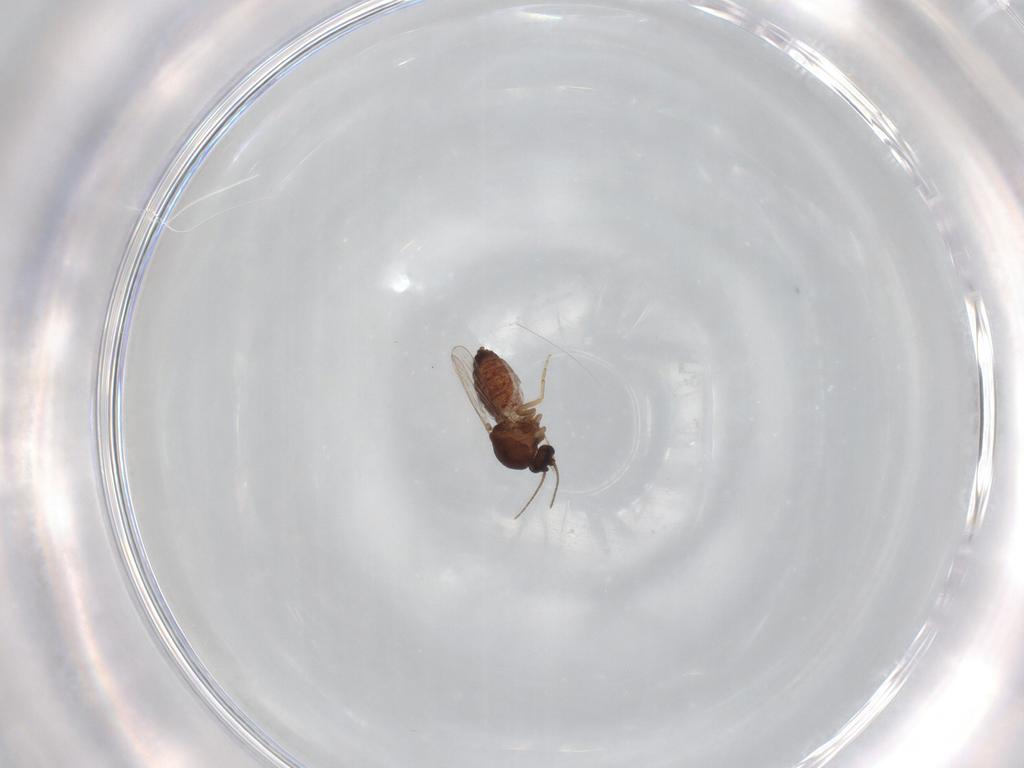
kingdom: Animalia
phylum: Arthropoda
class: Insecta
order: Diptera
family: Ceratopogonidae
